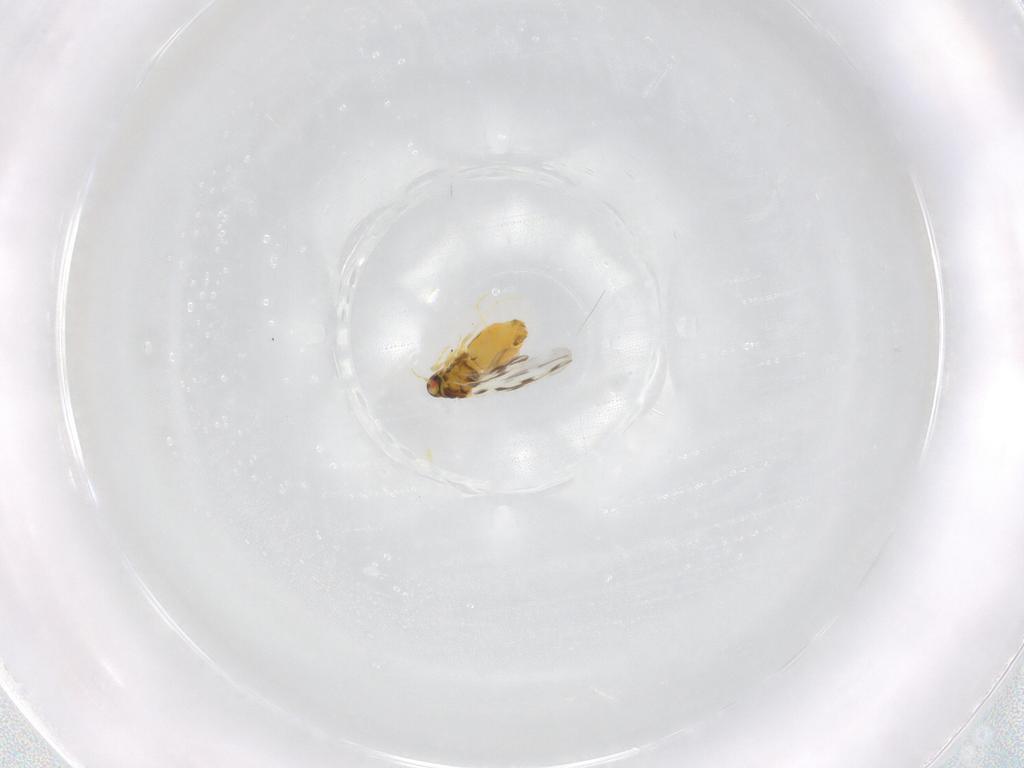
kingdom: Animalia
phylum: Arthropoda
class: Insecta
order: Hemiptera
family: Aleyrodidae
